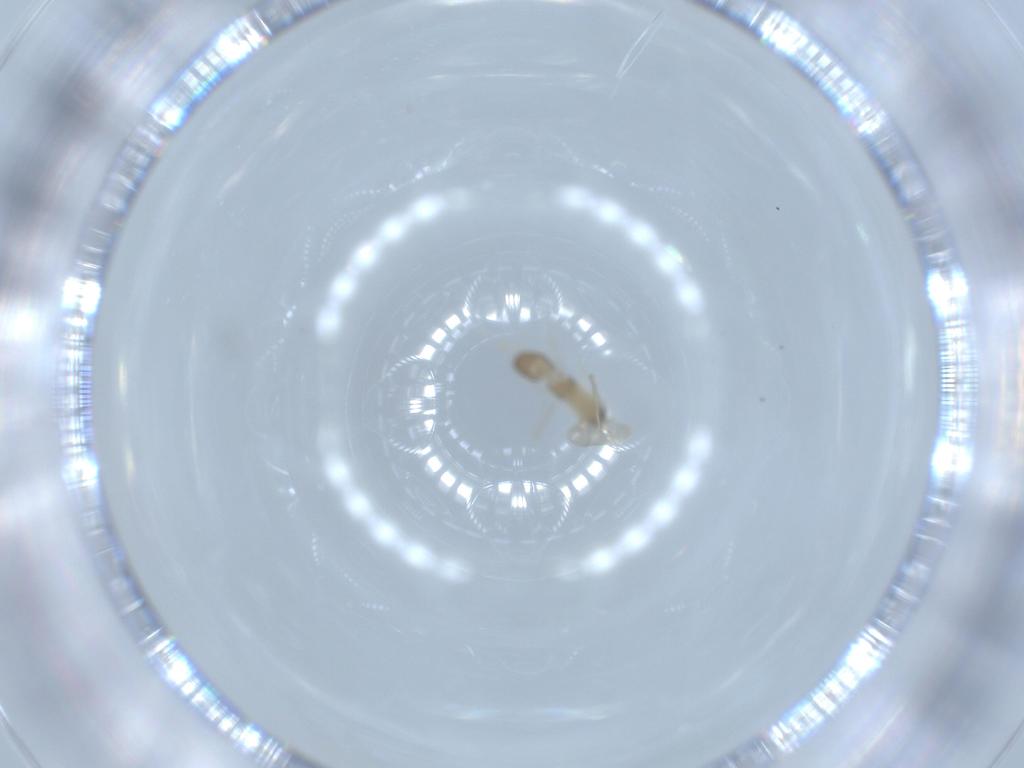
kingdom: Animalia
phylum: Arthropoda
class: Insecta
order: Diptera
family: Cecidomyiidae
